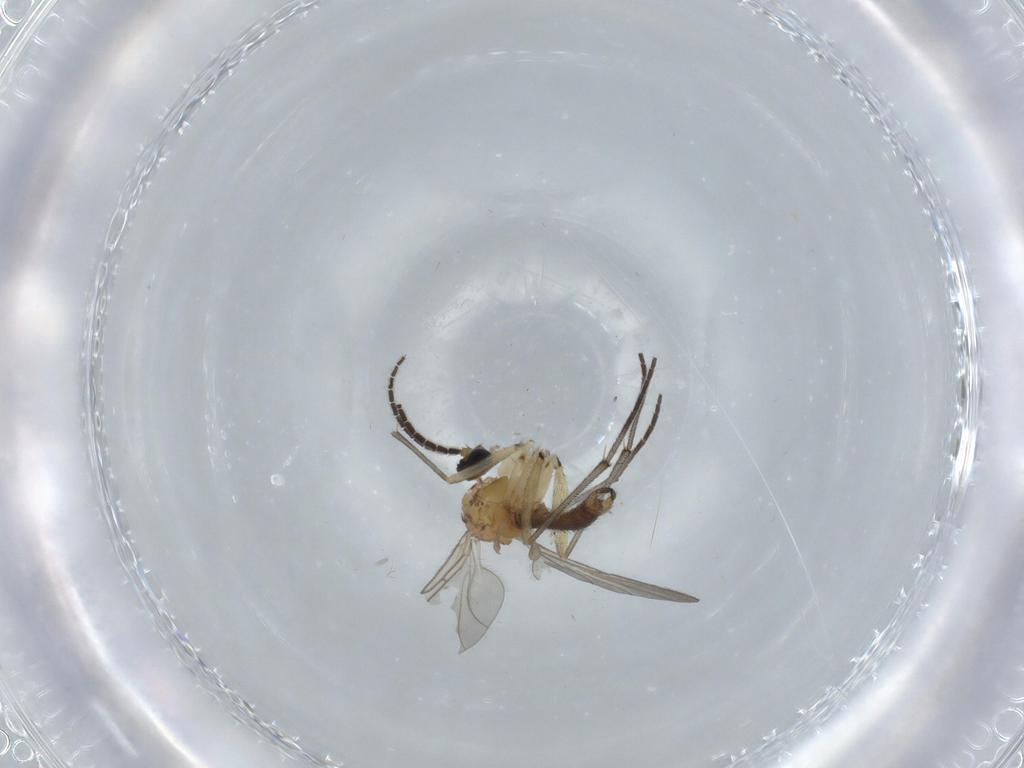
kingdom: Animalia
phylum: Arthropoda
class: Insecta
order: Diptera
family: Sciaridae
